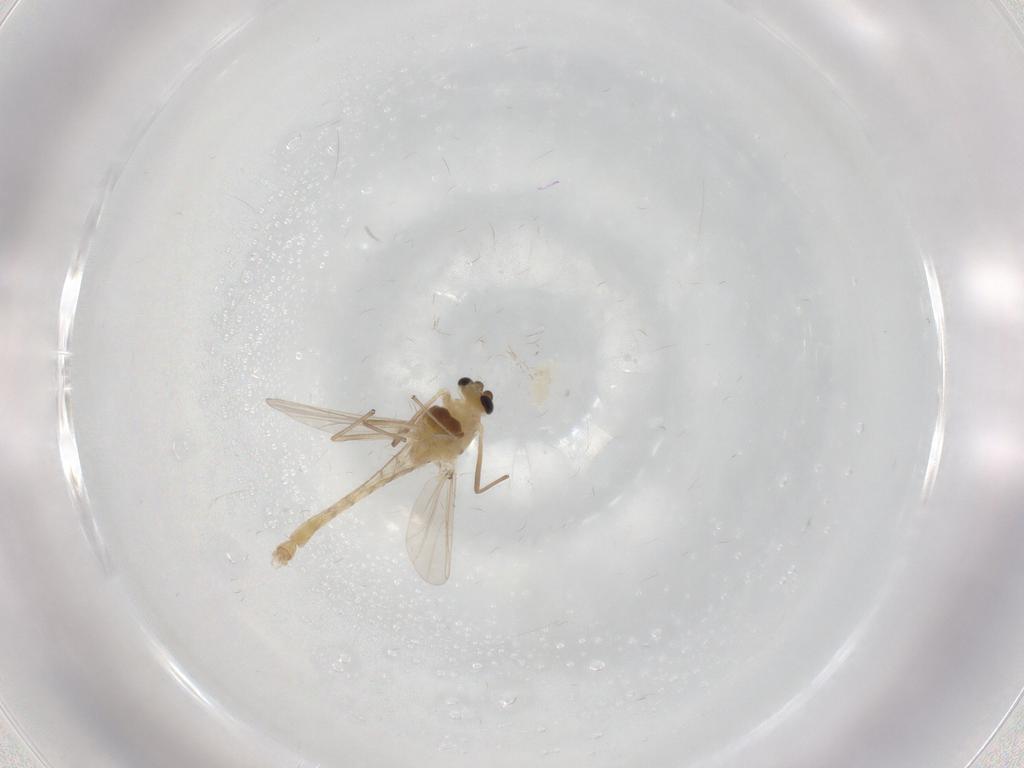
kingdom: Animalia
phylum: Arthropoda
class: Insecta
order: Diptera
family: Chironomidae
